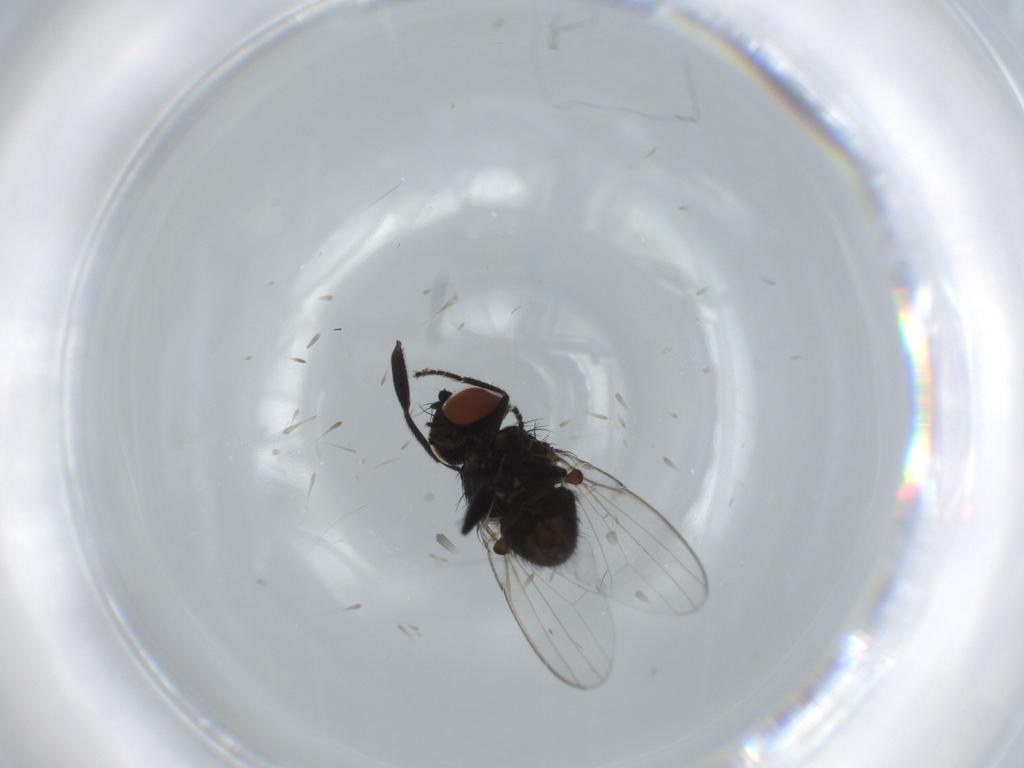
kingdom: Animalia
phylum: Arthropoda
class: Insecta
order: Diptera
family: Milichiidae
